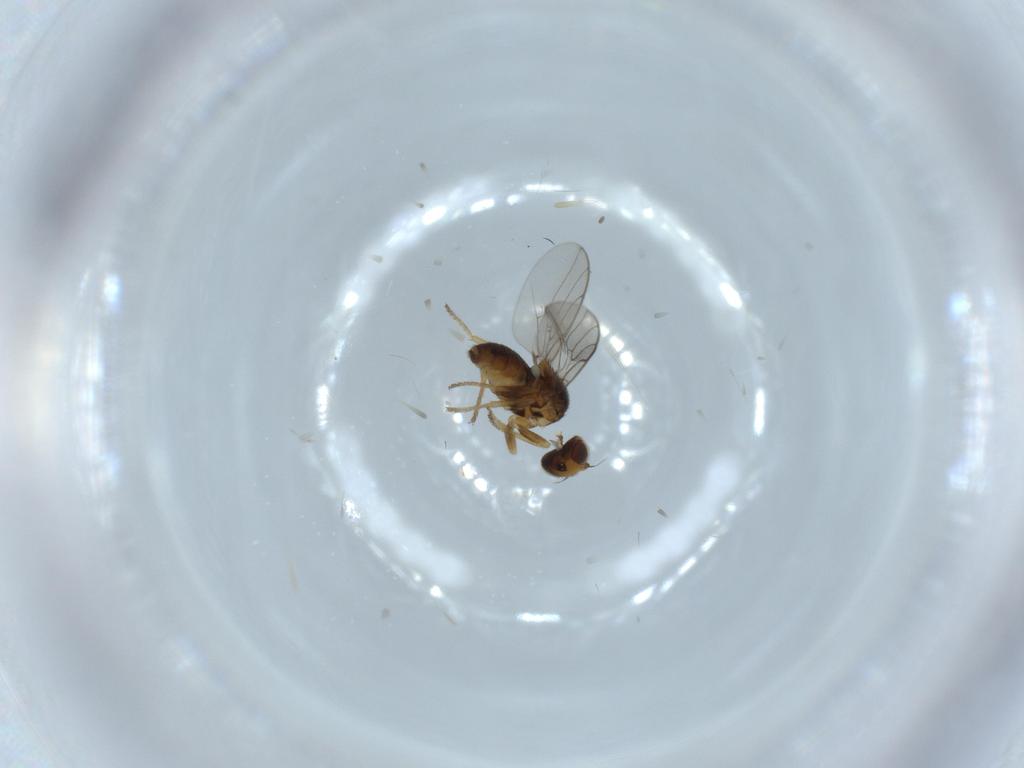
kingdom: Animalia
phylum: Arthropoda
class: Insecta
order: Diptera
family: Chloropidae
